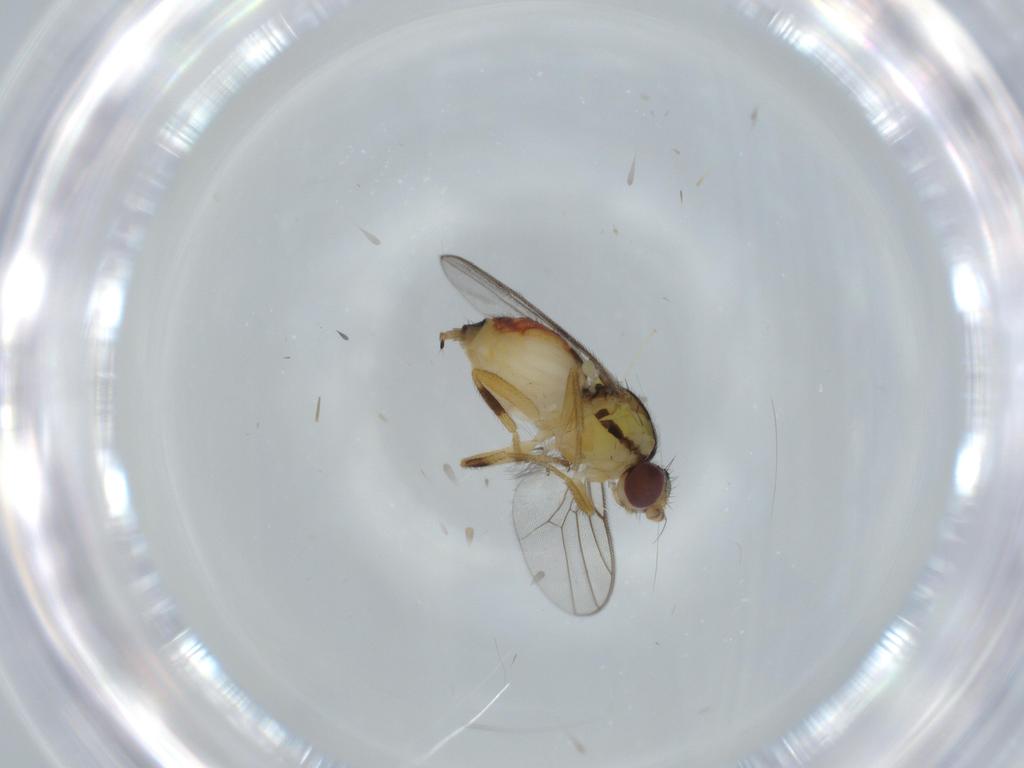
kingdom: Animalia
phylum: Arthropoda
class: Insecta
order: Diptera
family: Chloropidae
